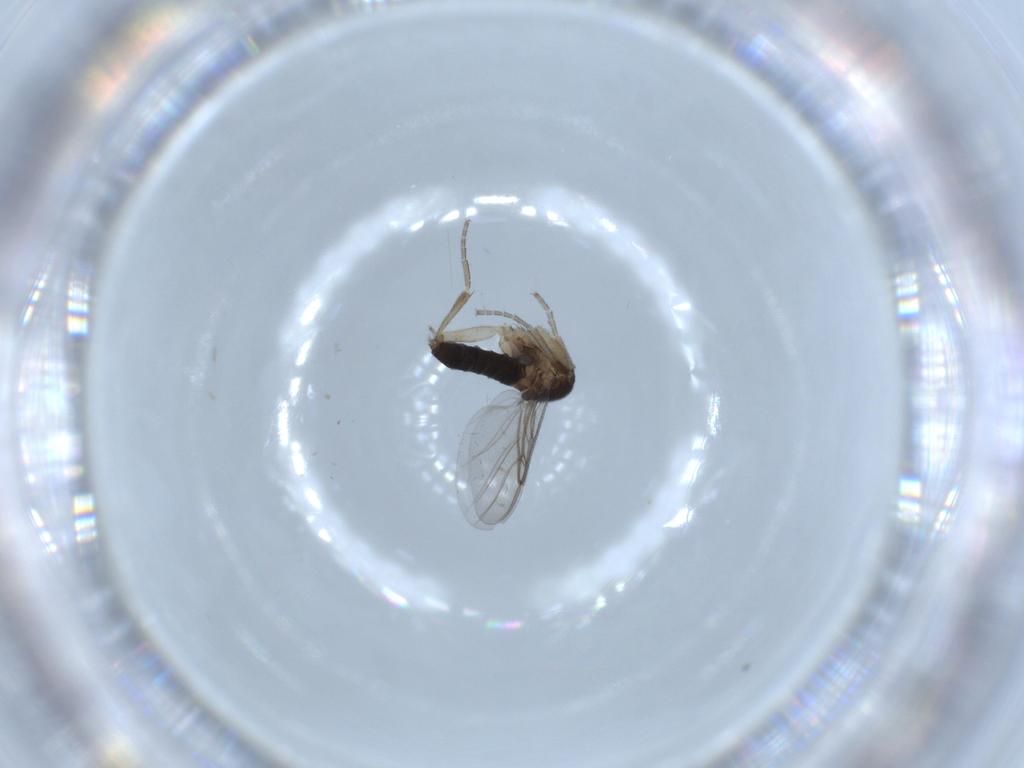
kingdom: Animalia
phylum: Arthropoda
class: Insecta
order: Diptera
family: Phoridae
